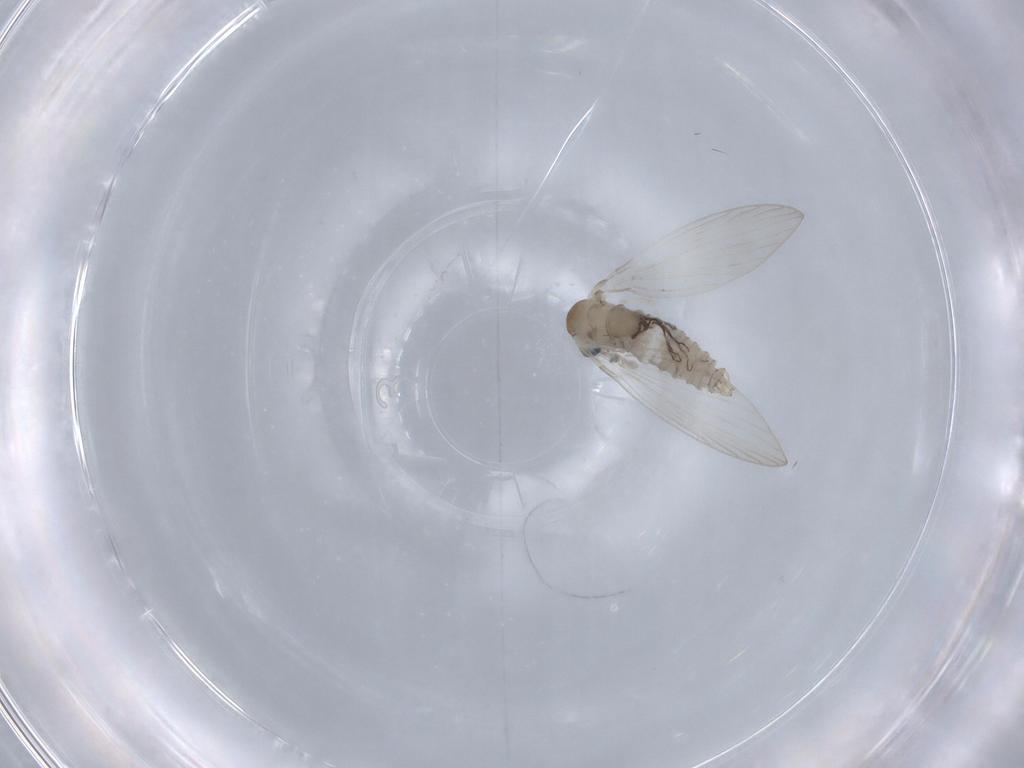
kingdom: Animalia
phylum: Arthropoda
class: Insecta
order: Diptera
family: Psychodidae
